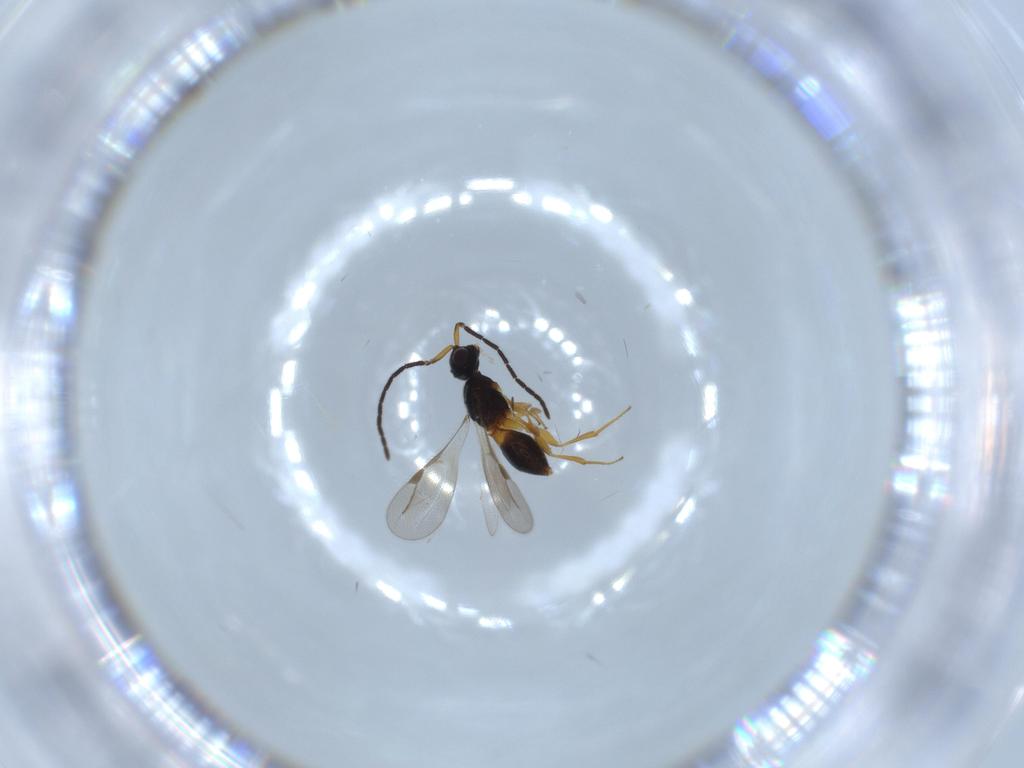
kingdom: Animalia
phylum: Arthropoda
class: Insecta
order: Hymenoptera
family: Megaspilidae
